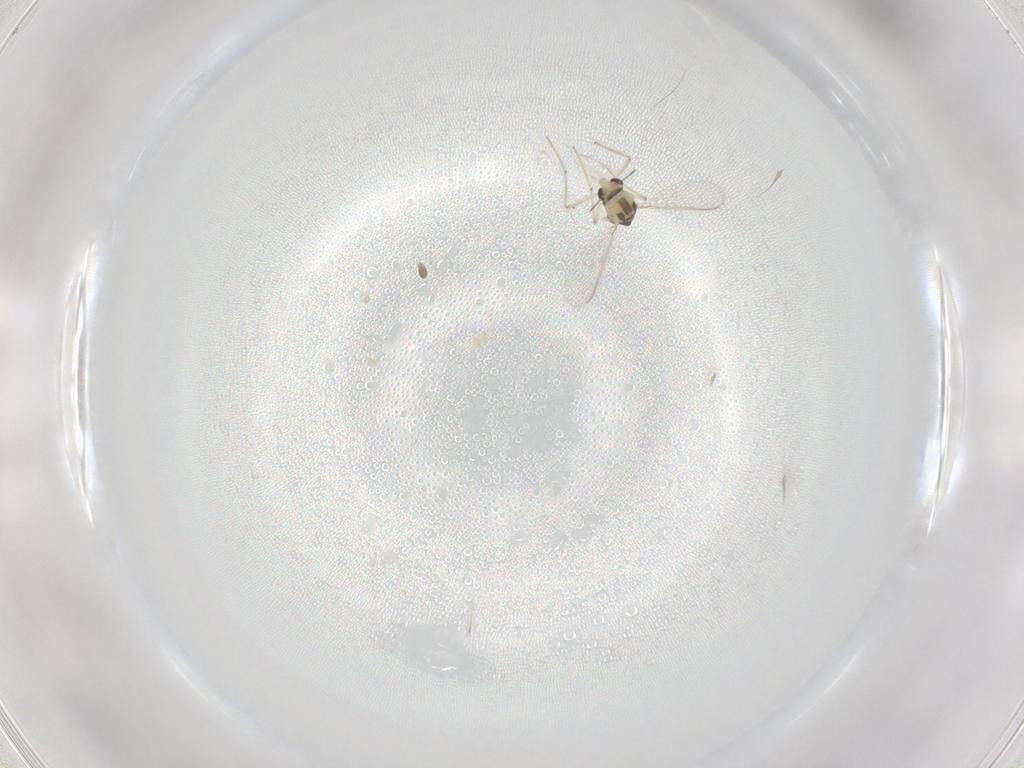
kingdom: Animalia
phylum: Arthropoda
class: Insecta
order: Diptera
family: Chironomidae
